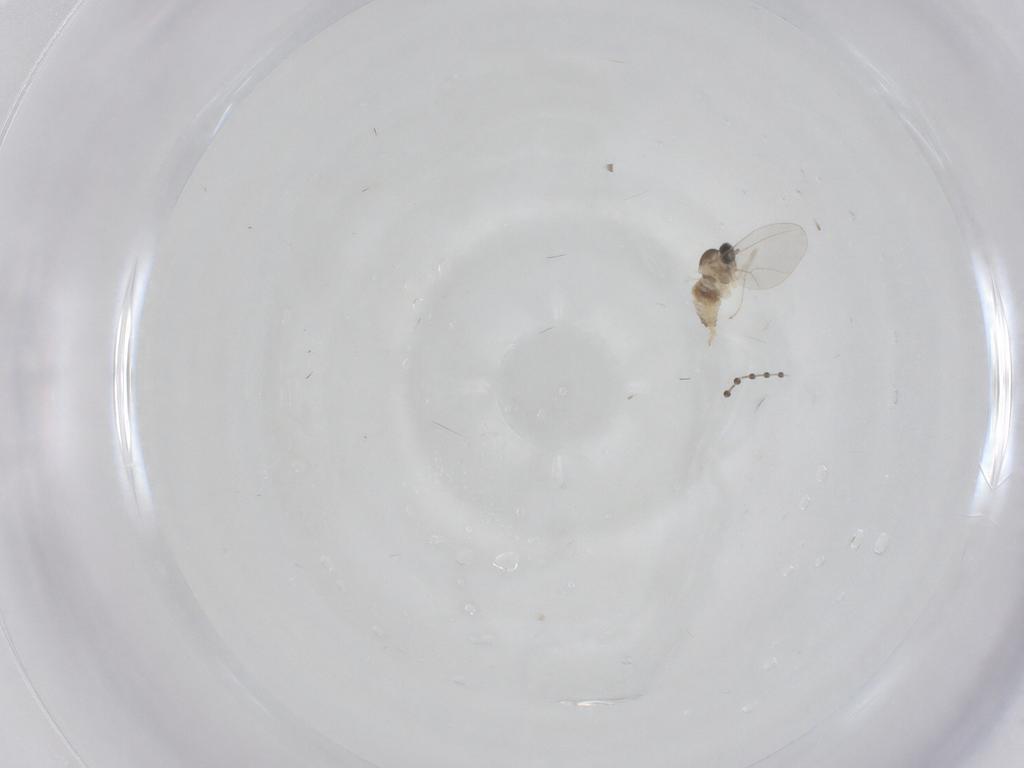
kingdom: Animalia
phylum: Arthropoda
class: Insecta
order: Diptera
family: Cecidomyiidae
